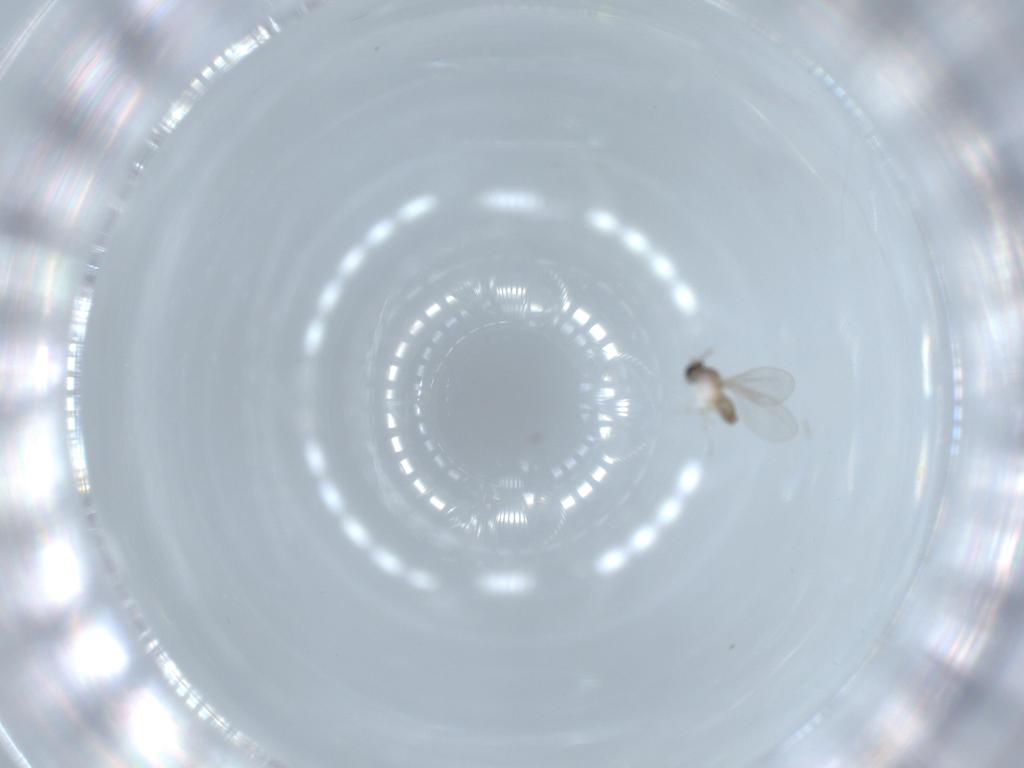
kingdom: Animalia
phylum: Arthropoda
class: Insecta
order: Diptera
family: Cecidomyiidae
